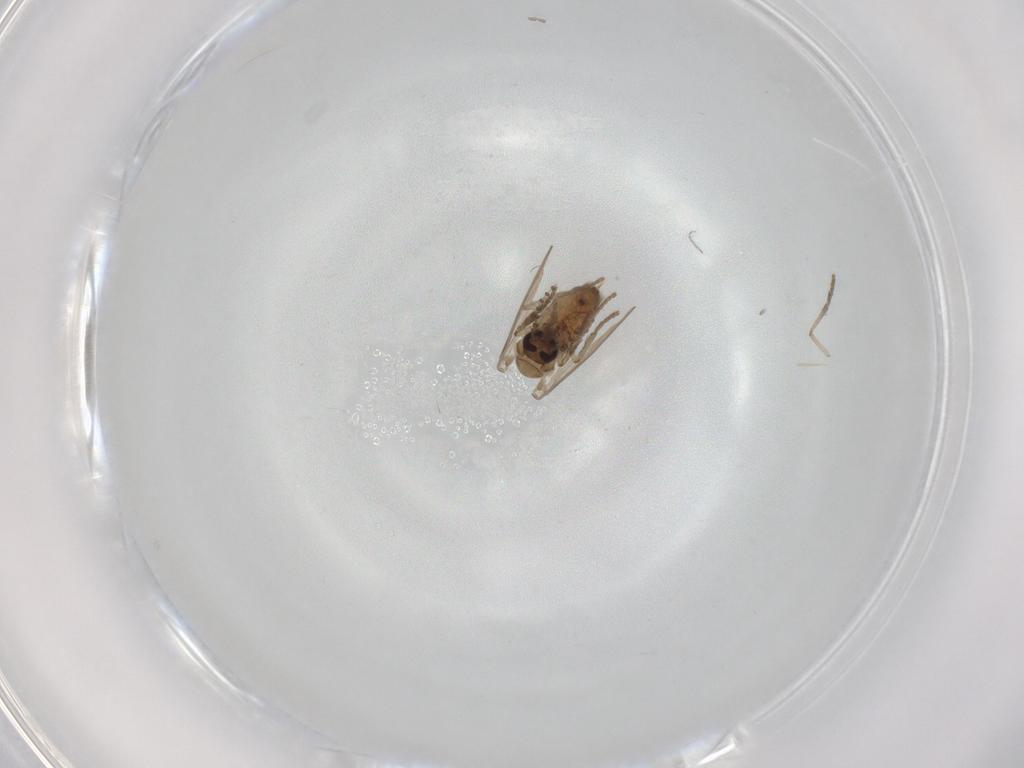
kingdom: Animalia
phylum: Arthropoda
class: Insecta
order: Diptera
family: Psychodidae
